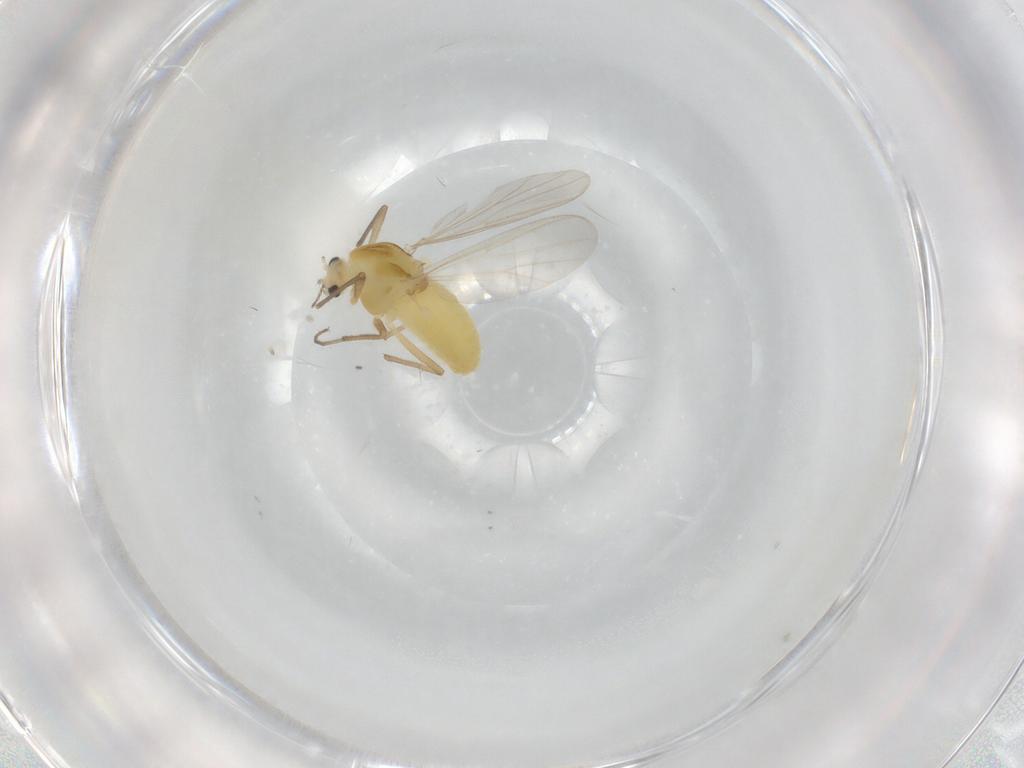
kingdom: Animalia
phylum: Arthropoda
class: Insecta
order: Diptera
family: Chironomidae
